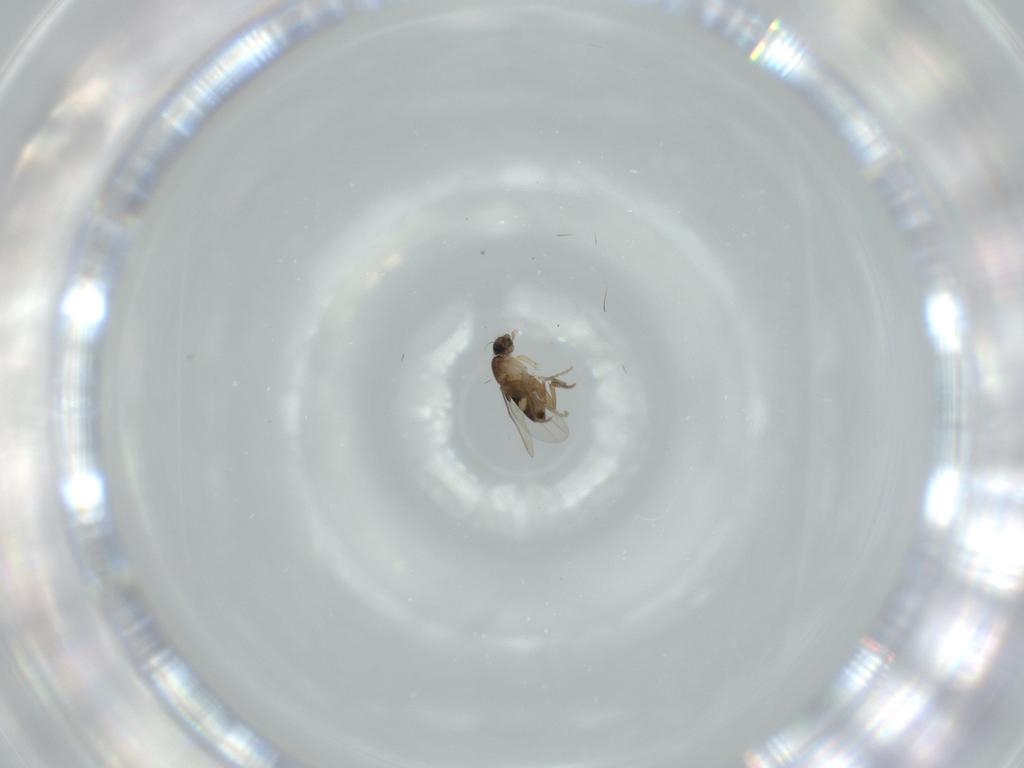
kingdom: Animalia
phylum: Arthropoda
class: Insecta
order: Diptera
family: Phoridae
